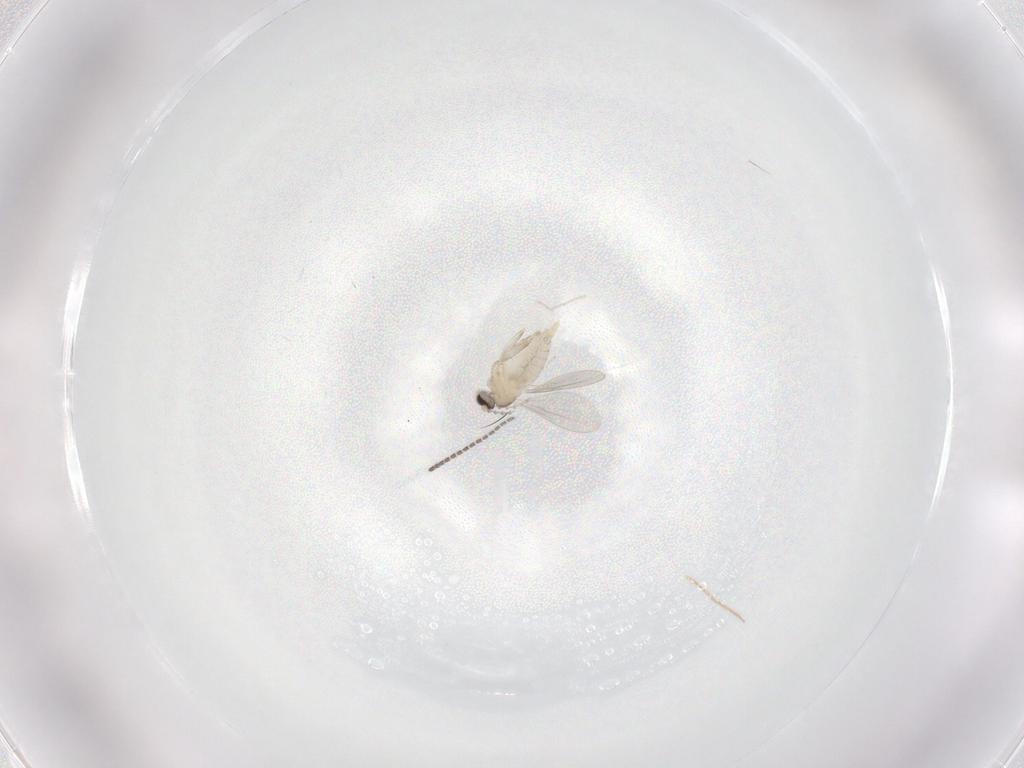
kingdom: Animalia
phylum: Arthropoda
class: Insecta
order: Diptera
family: Cecidomyiidae
